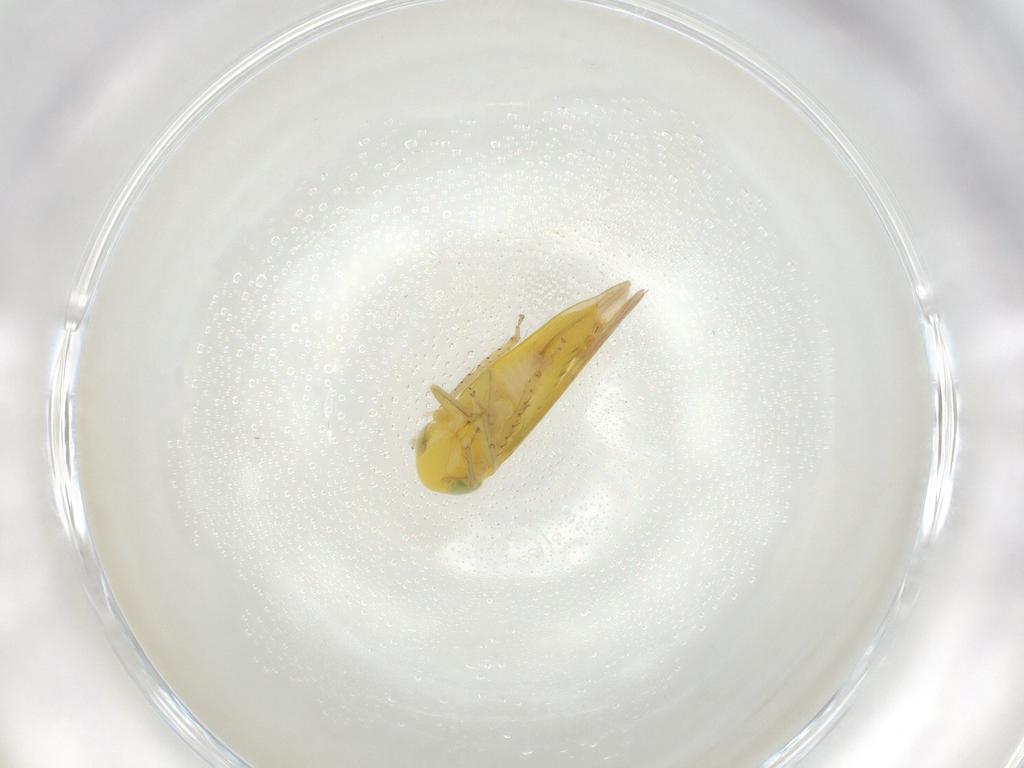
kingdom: Animalia
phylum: Arthropoda
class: Insecta
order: Hemiptera
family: Cicadellidae
